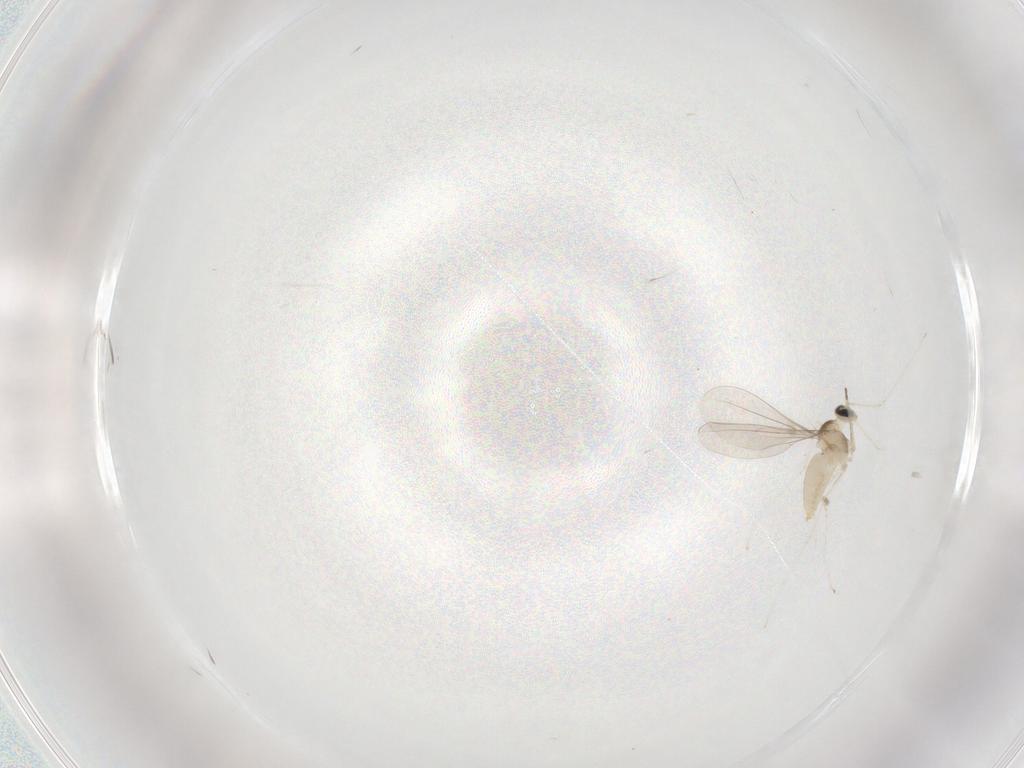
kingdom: Animalia
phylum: Arthropoda
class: Insecta
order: Diptera
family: Cecidomyiidae
